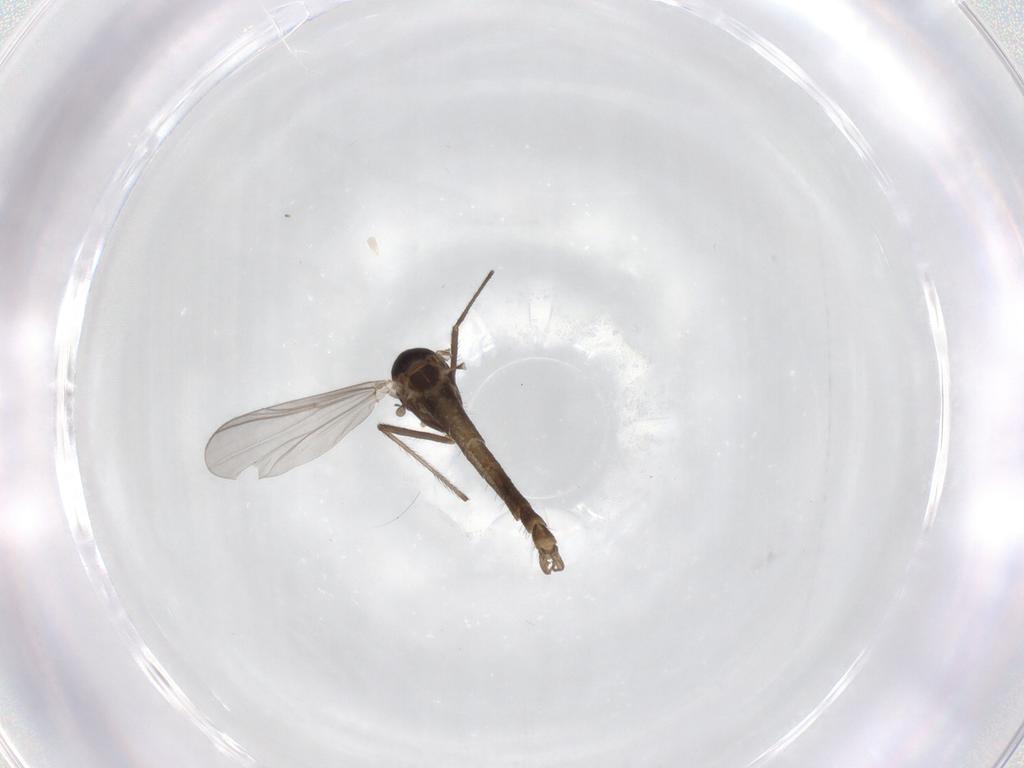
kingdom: Animalia
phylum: Arthropoda
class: Insecta
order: Diptera
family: Chironomidae
